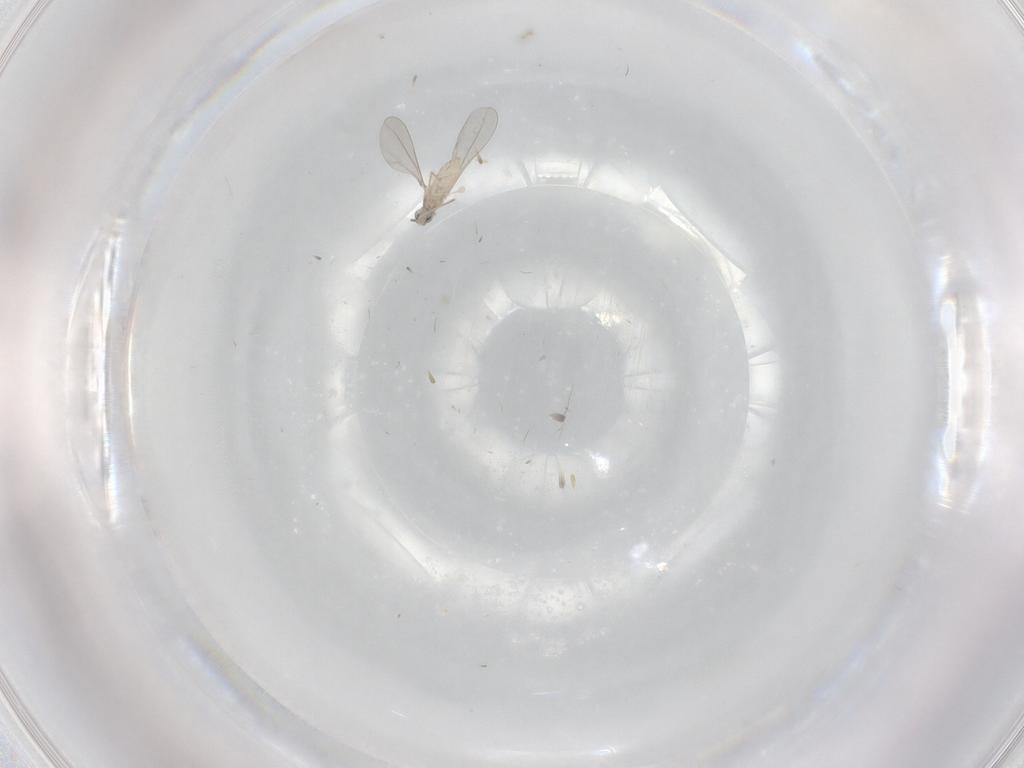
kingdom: Animalia
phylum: Arthropoda
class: Insecta
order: Diptera
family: Cecidomyiidae
